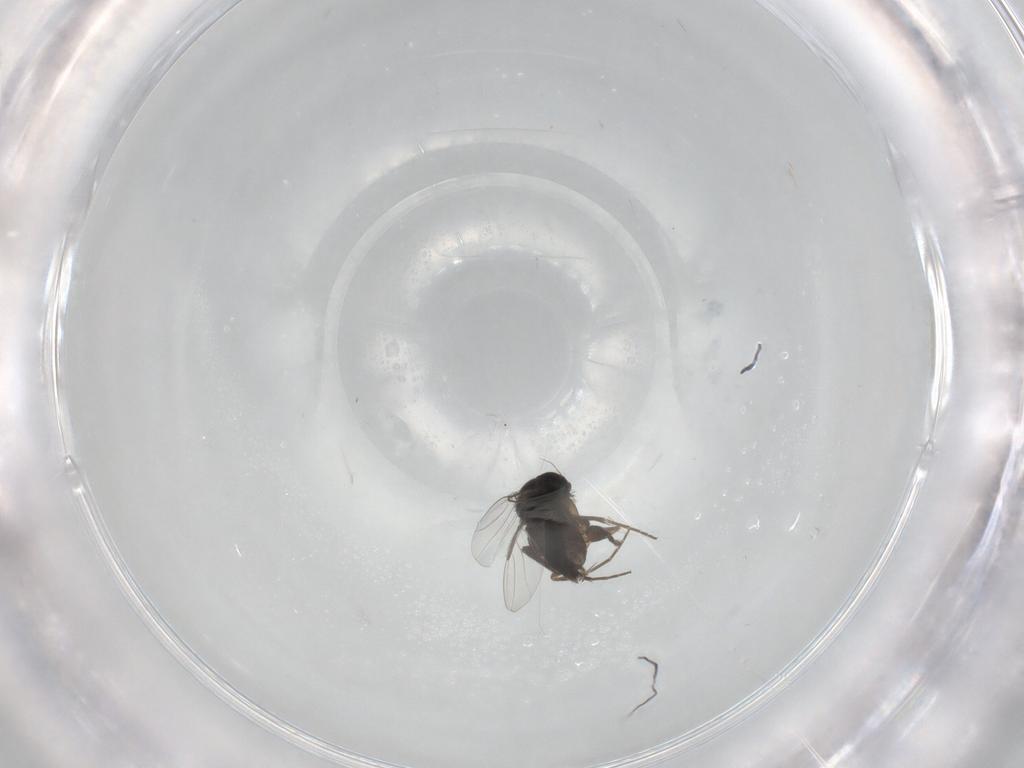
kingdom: Animalia
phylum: Arthropoda
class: Insecta
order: Diptera
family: Phoridae
